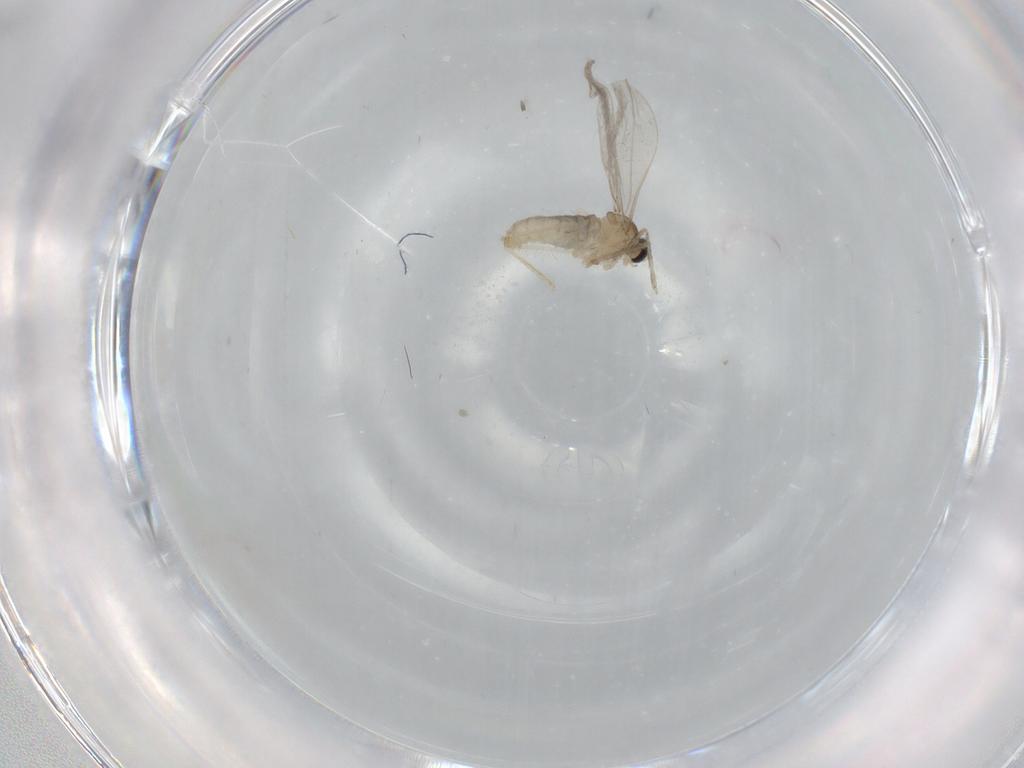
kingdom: Animalia
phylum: Arthropoda
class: Insecta
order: Diptera
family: Cecidomyiidae
